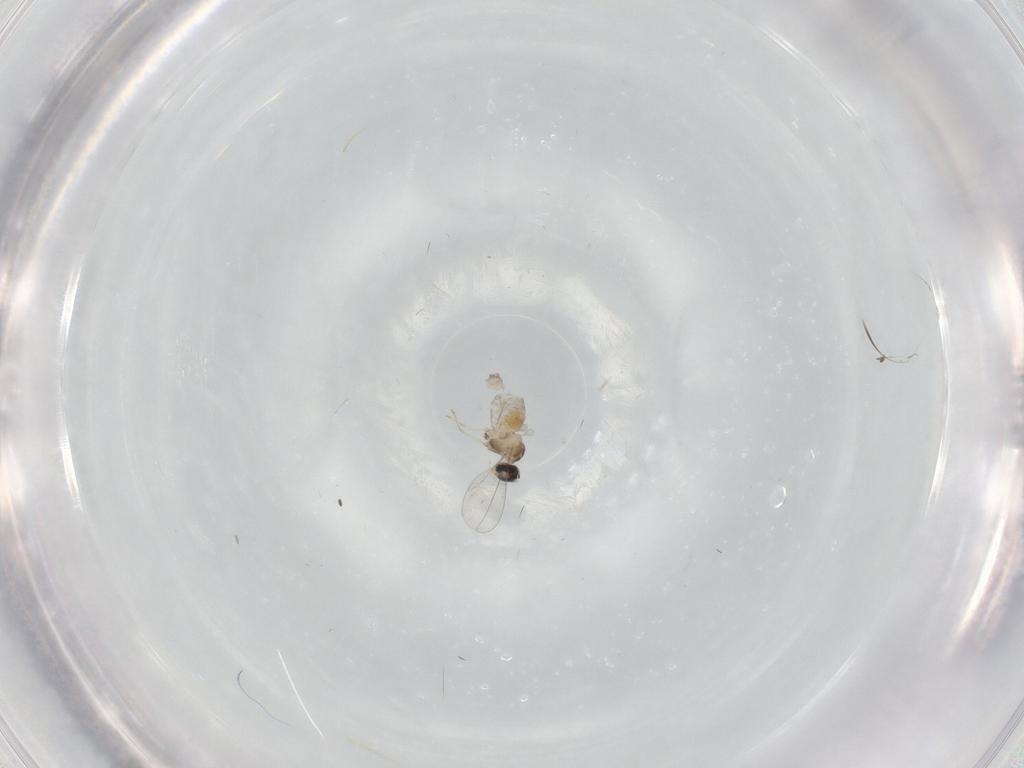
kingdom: Animalia
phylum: Arthropoda
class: Insecta
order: Diptera
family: Cecidomyiidae
